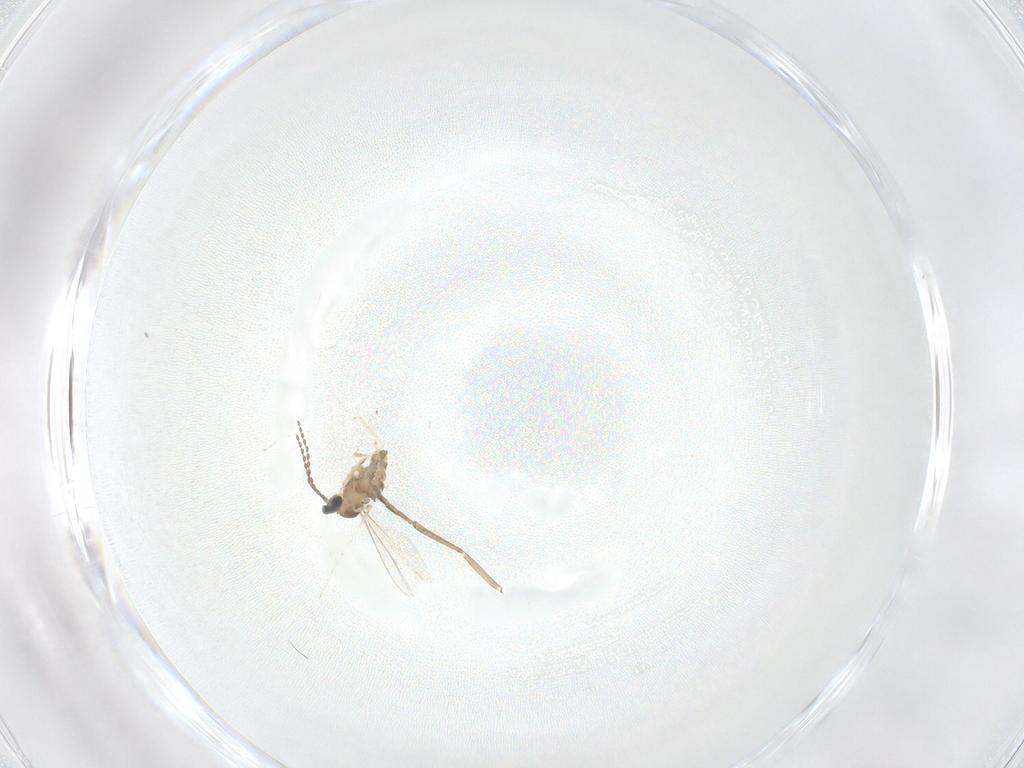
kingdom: Animalia
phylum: Arthropoda
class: Insecta
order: Diptera
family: Cecidomyiidae
